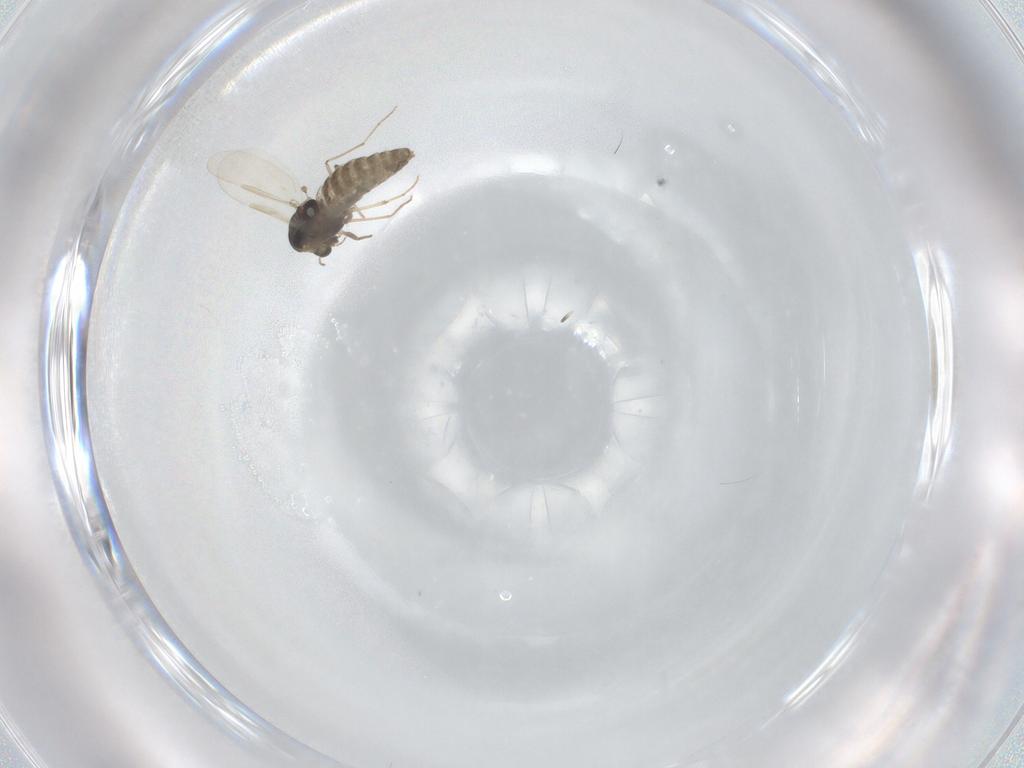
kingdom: Animalia
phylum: Arthropoda
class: Insecta
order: Diptera
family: Chironomidae
